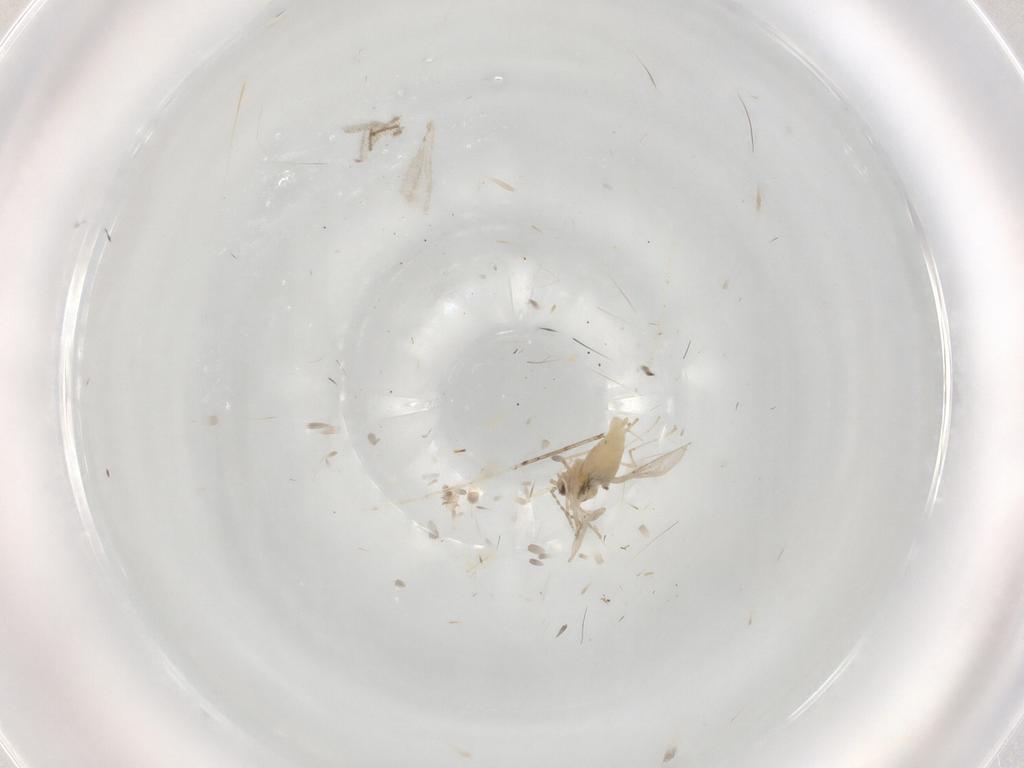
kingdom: Animalia
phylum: Arthropoda
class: Insecta
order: Diptera
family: Cecidomyiidae
